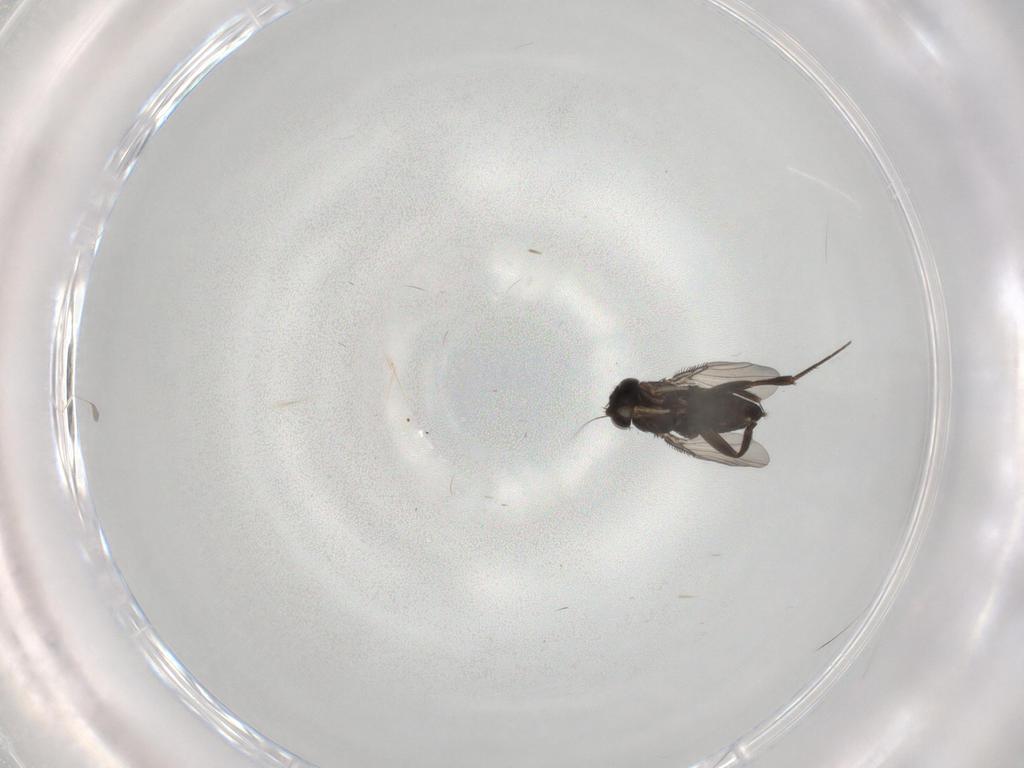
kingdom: Animalia
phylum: Arthropoda
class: Insecta
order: Diptera
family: Phoridae
